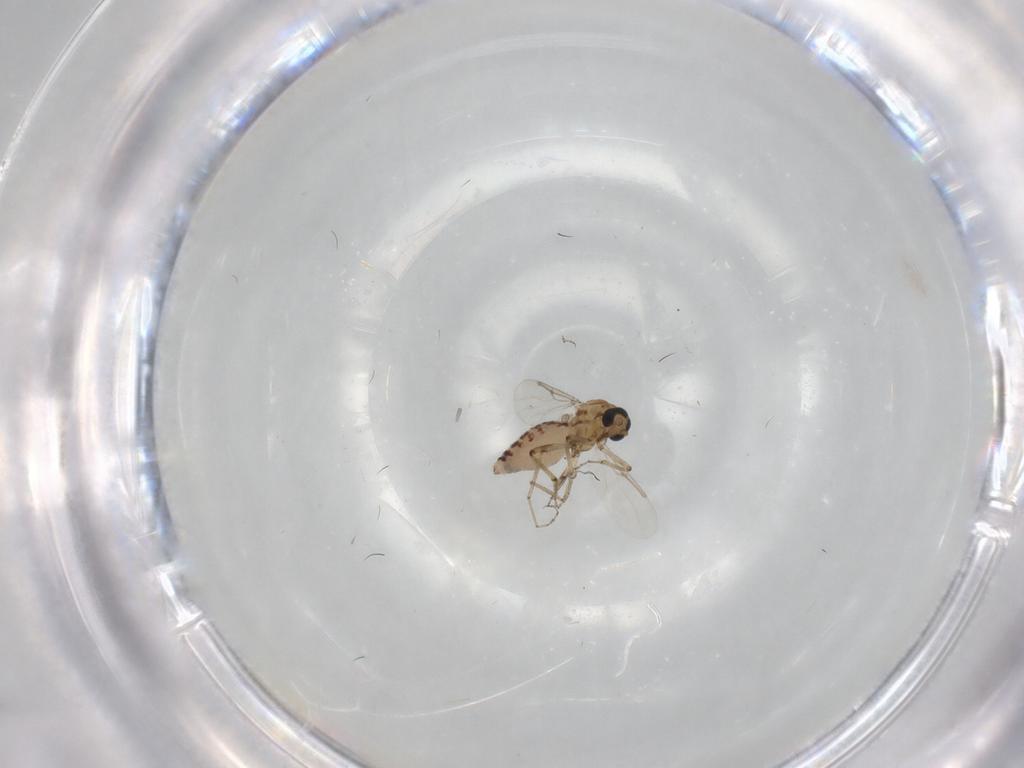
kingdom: Animalia
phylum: Arthropoda
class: Insecta
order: Diptera
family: Ceratopogonidae
